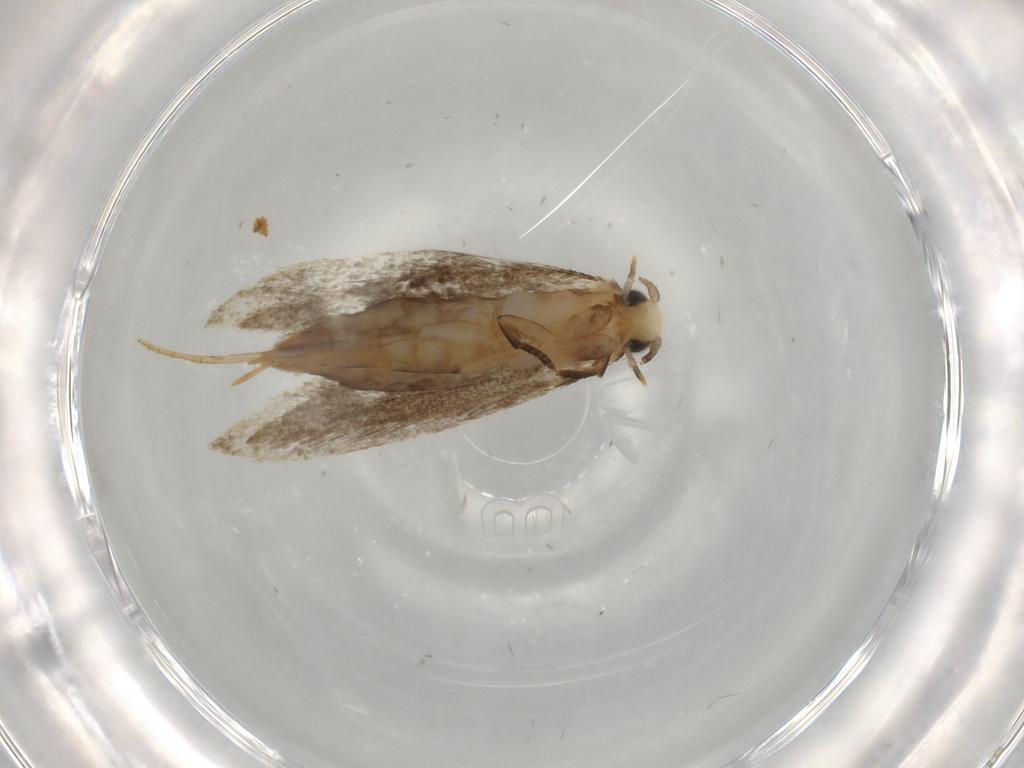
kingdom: Animalia
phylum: Arthropoda
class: Insecta
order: Lepidoptera
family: Tineidae
